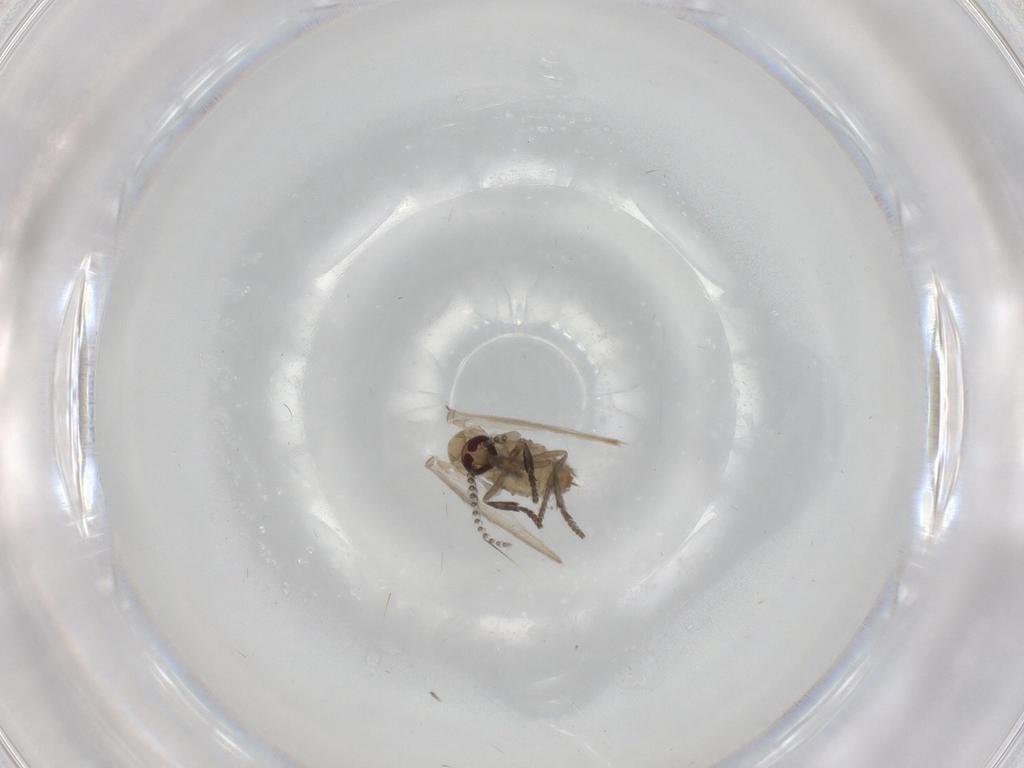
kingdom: Animalia
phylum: Arthropoda
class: Insecta
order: Diptera
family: Psychodidae
